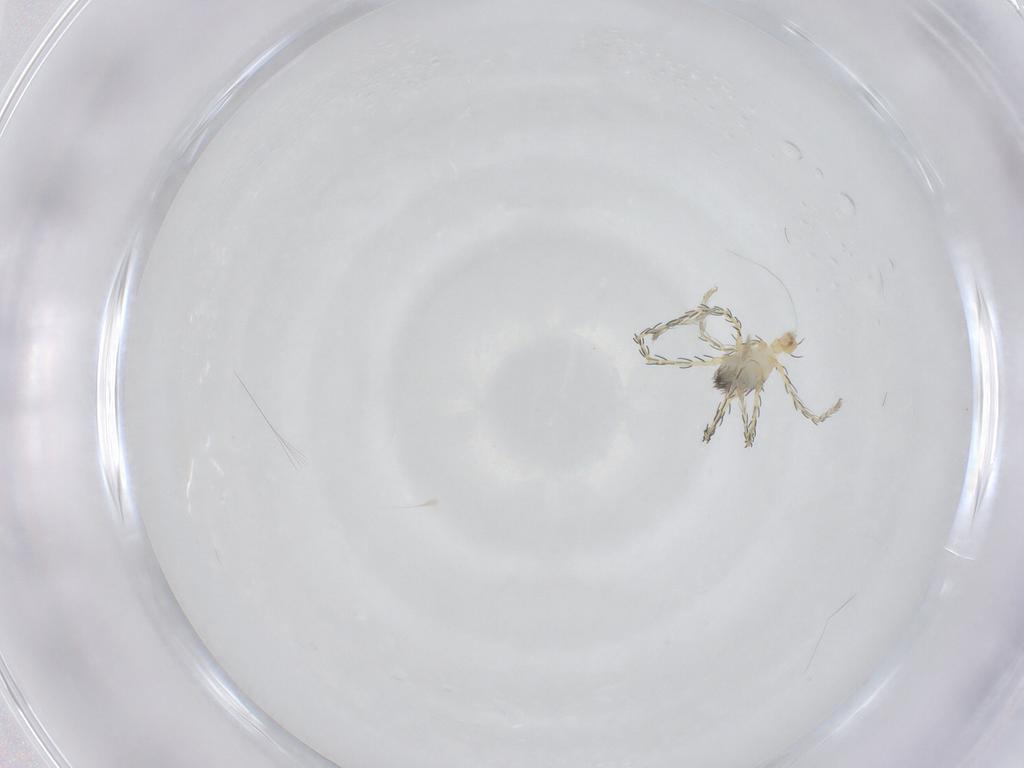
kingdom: Animalia
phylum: Arthropoda
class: Arachnida
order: Trombidiformes
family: Erythraeidae
